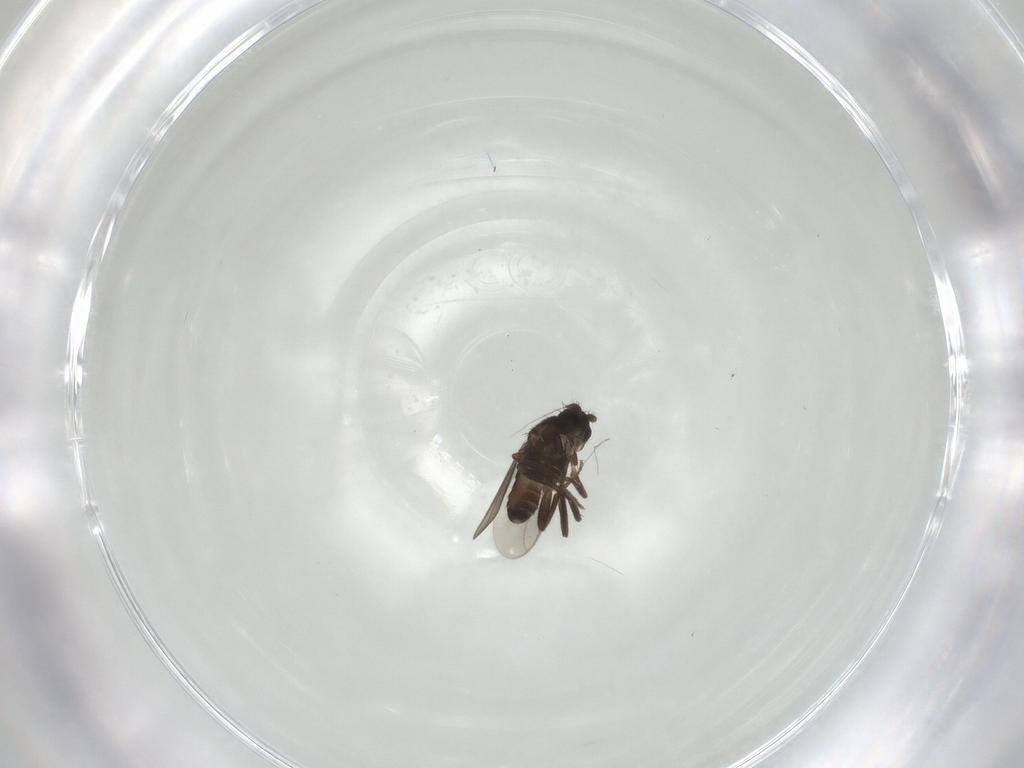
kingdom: Animalia
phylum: Arthropoda
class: Insecta
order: Diptera
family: Sphaeroceridae
